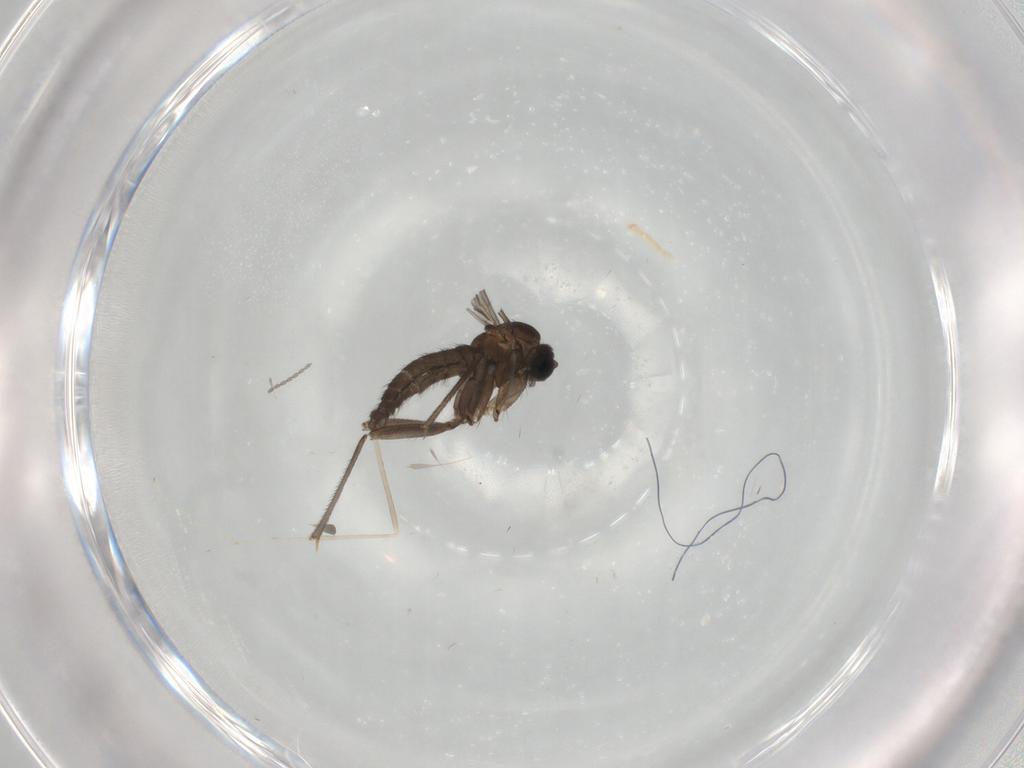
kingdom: Animalia
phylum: Arthropoda
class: Insecta
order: Diptera
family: Sciaridae
